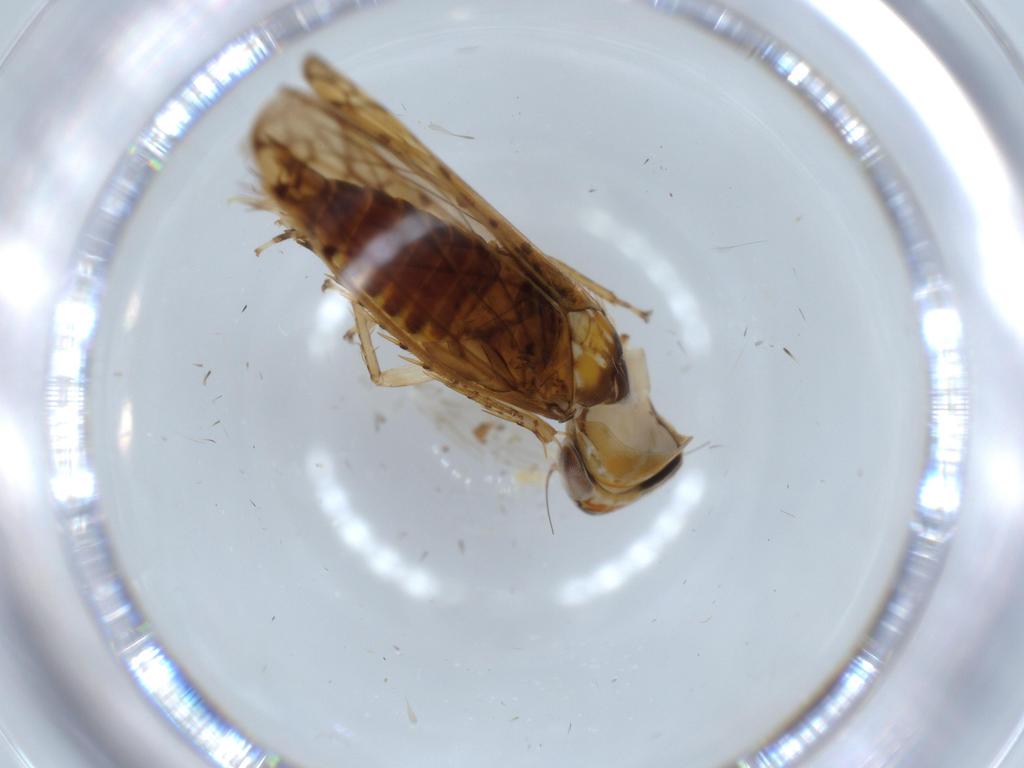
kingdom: Animalia
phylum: Arthropoda
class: Insecta
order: Hemiptera
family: Cicadellidae
